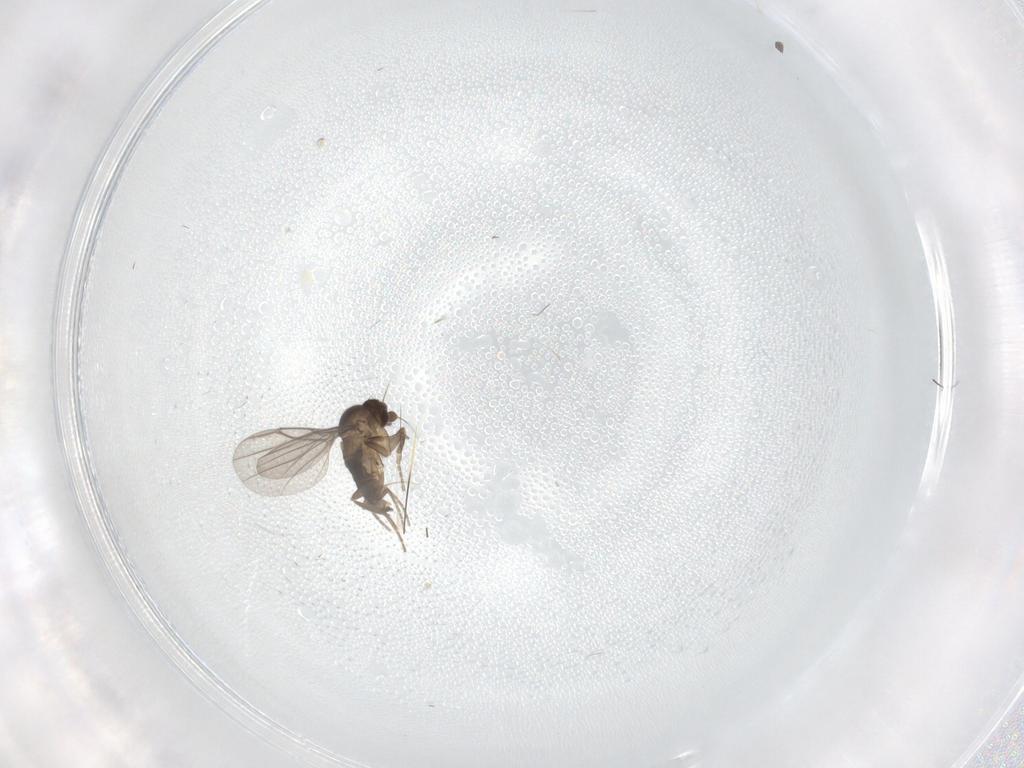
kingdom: Animalia
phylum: Arthropoda
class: Insecta
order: Diptera
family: Phoridae
